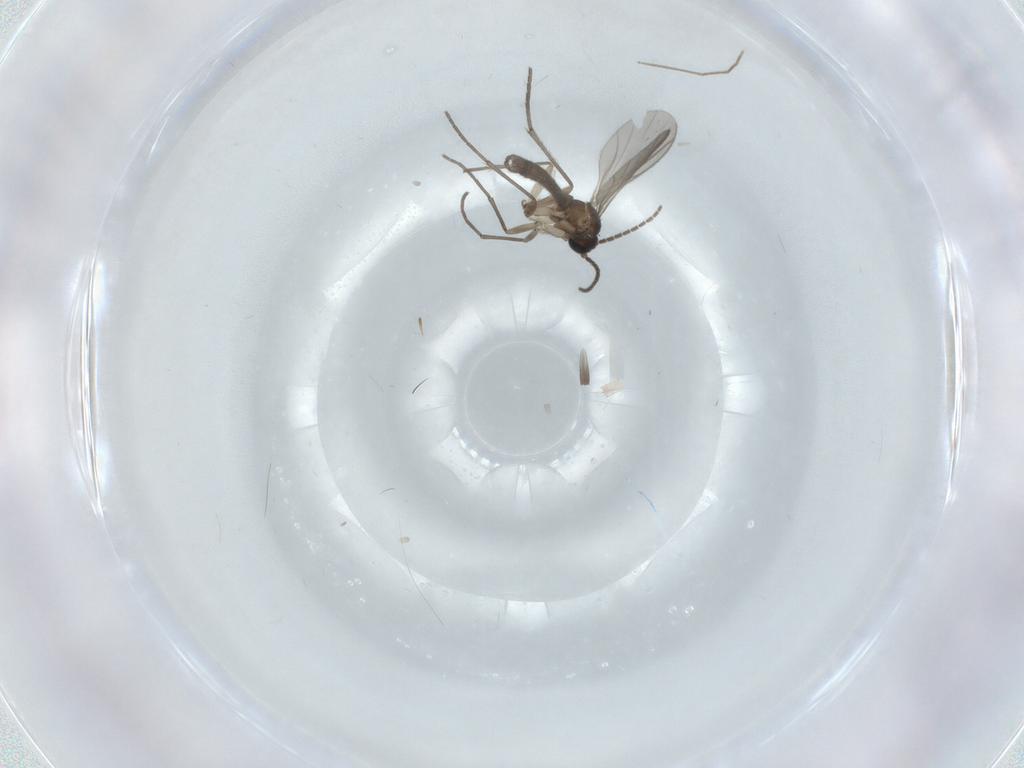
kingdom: Animalia
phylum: Arthropoda
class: Insecta
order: Diptera
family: Sciaridae
